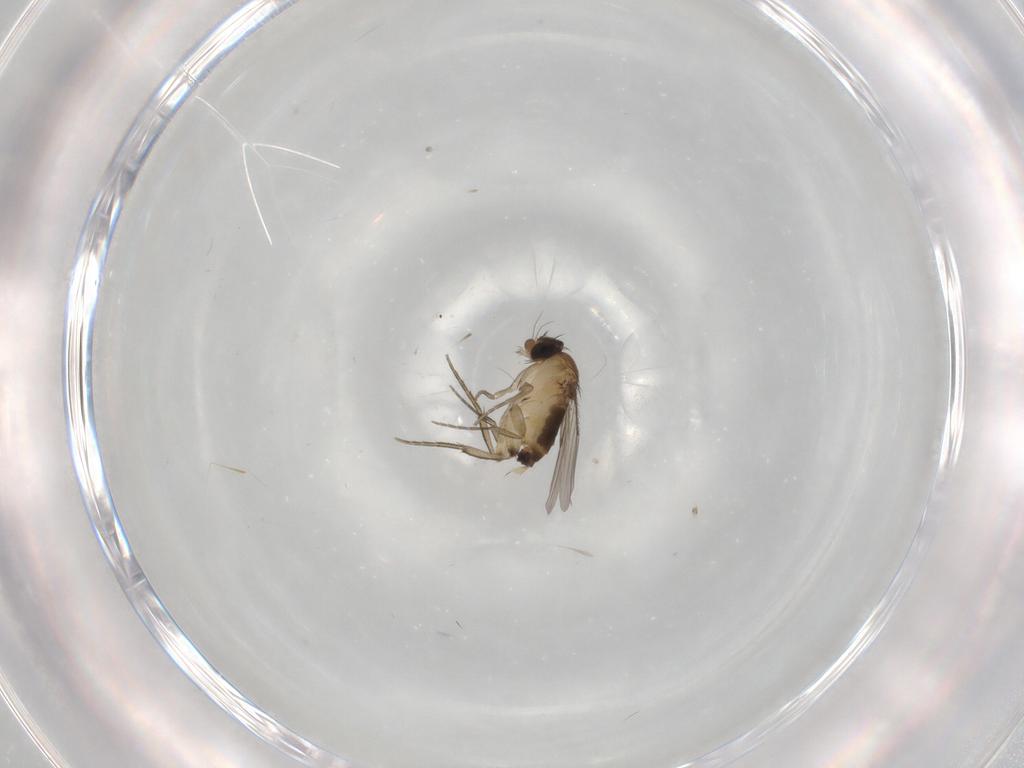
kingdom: Animalia
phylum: Arthropoda
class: Insecta
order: Diptera
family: Phoridae
